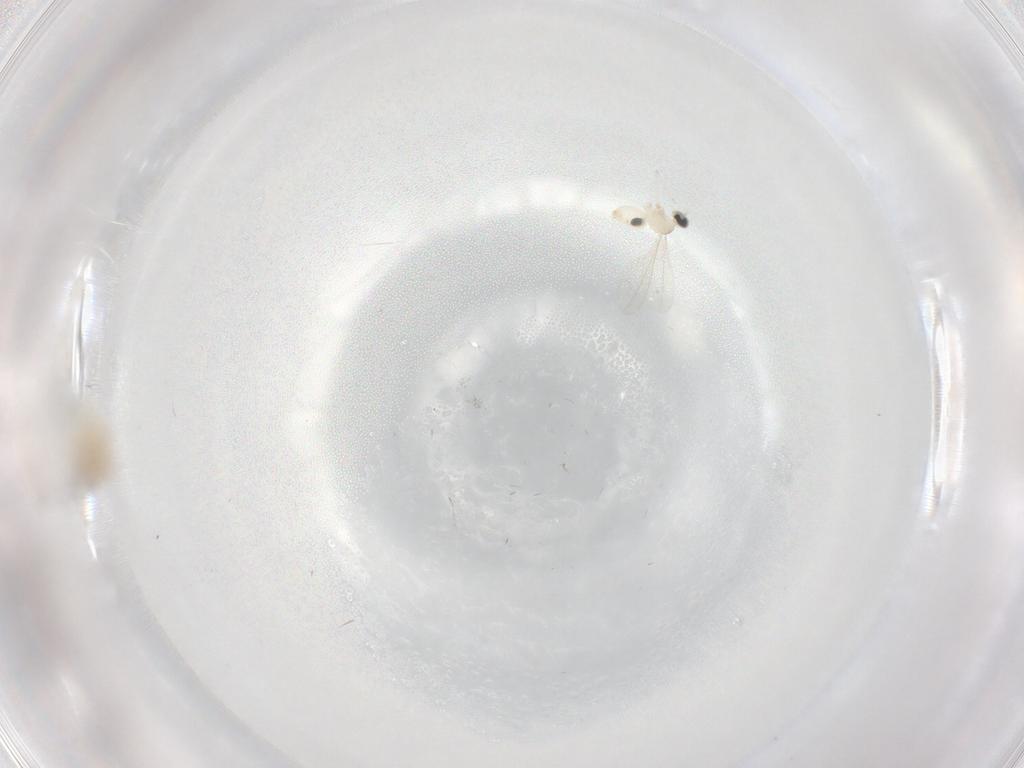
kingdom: Animalia
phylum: Arthropoda
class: Insecta
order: Diptera
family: Cecidomyiidae
